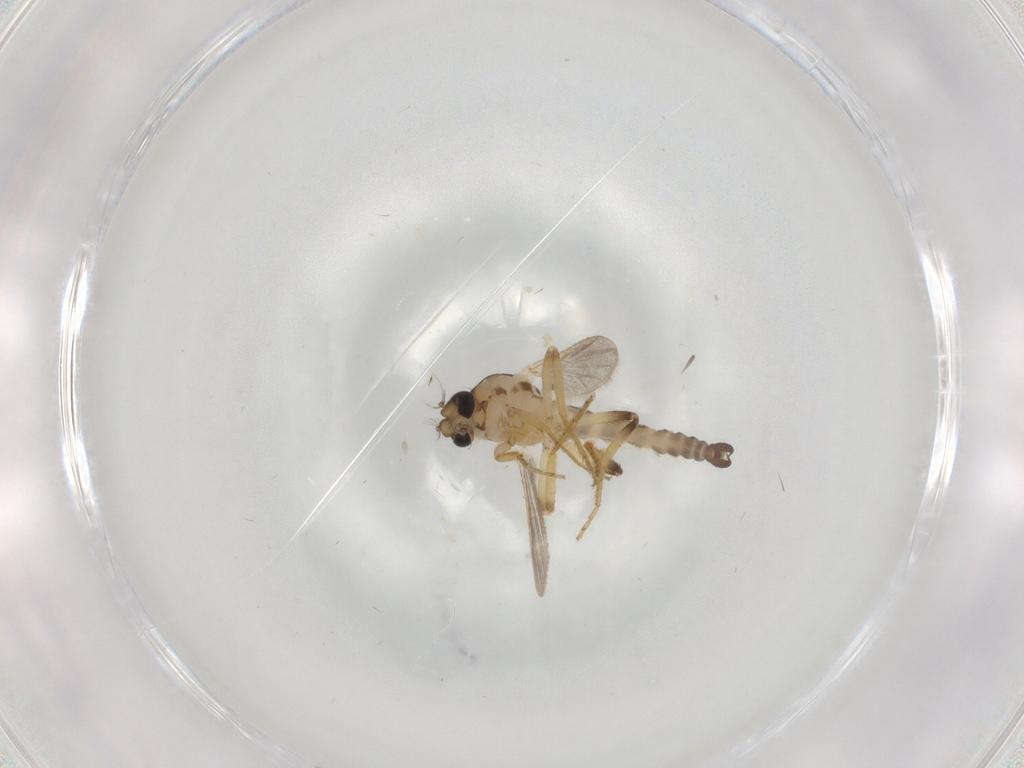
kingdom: Animalia
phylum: Arthropoda
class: Insecta
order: Diptera
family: Ceratopogonidae
